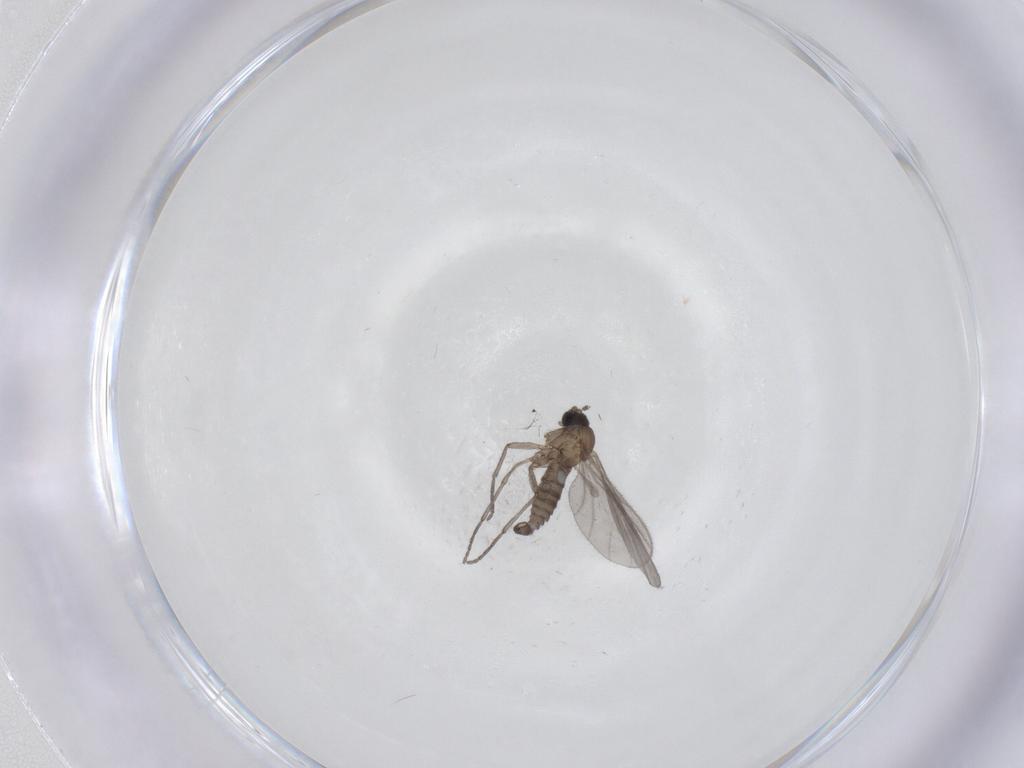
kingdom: Animalia
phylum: Arthropoda
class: Insecta
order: Diptera
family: Sciaridae
